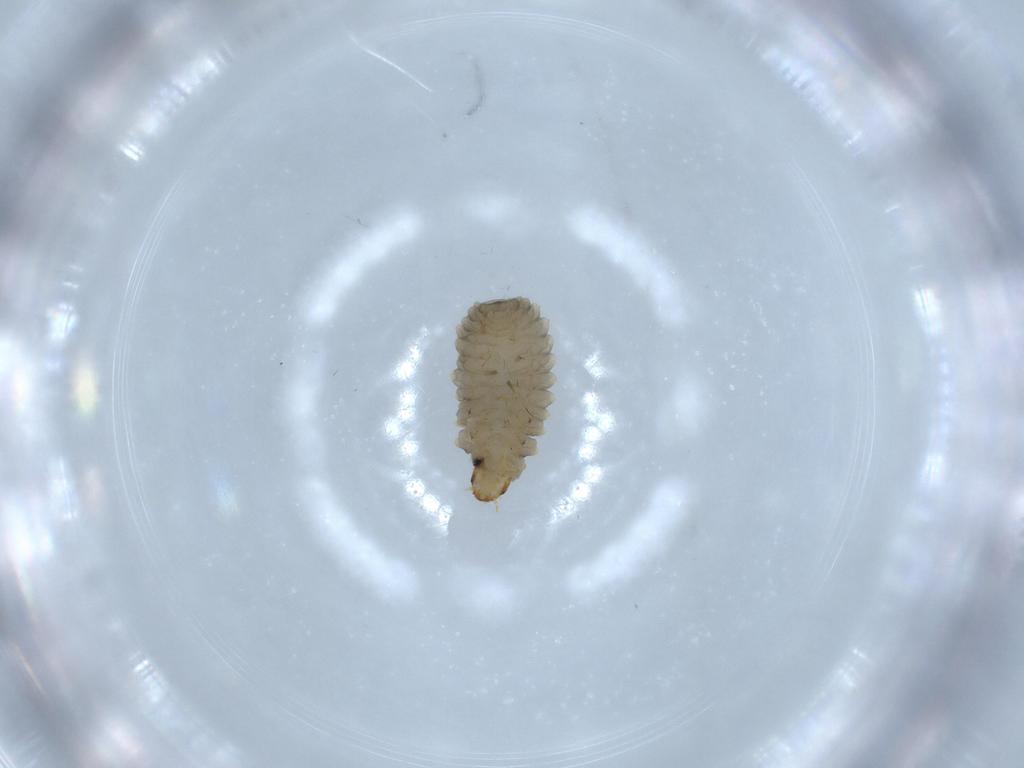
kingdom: Animalia
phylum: Arthropoda
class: Insecta
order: Coleoptera
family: Coccinellidae
